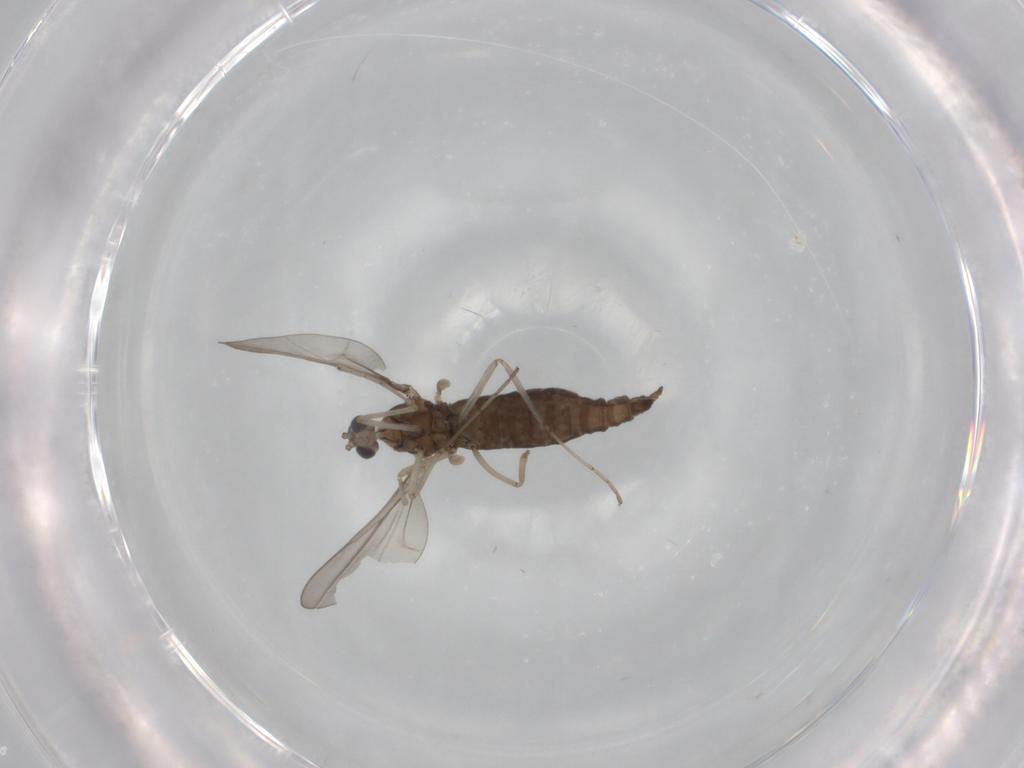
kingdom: Animalia
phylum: Arthropoda
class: Insecta
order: Diptera
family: Cecidomyiidae
